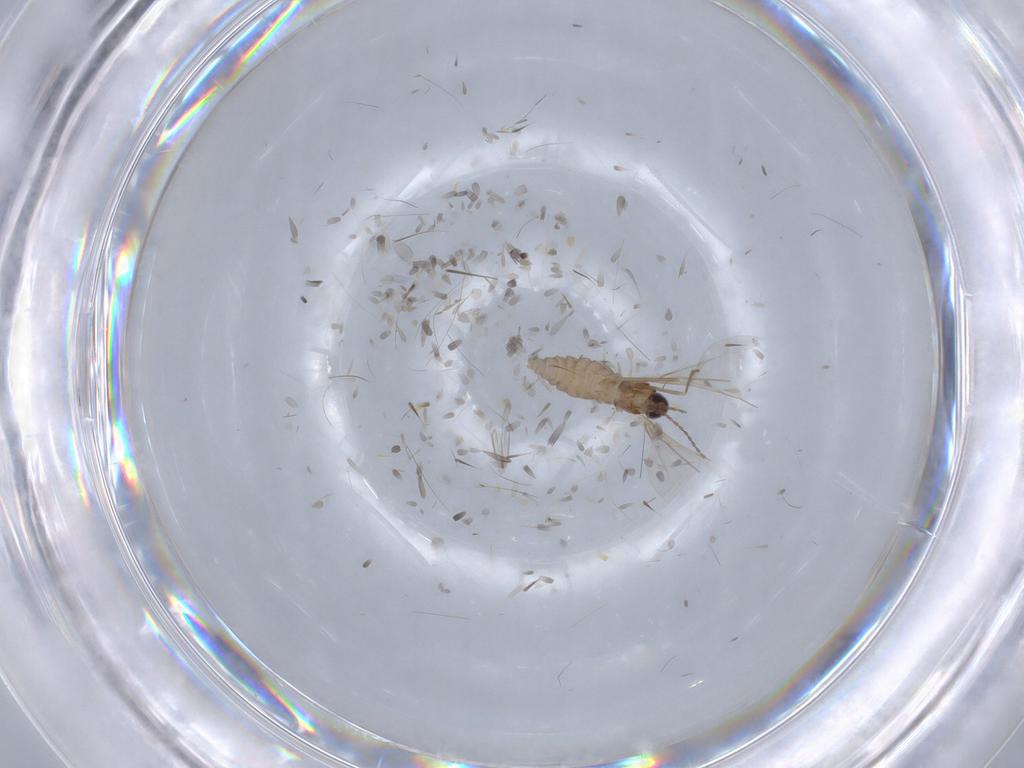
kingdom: Animalia
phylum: Arthropoda
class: Insecta
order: Diptera
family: Cecidomyiidae
